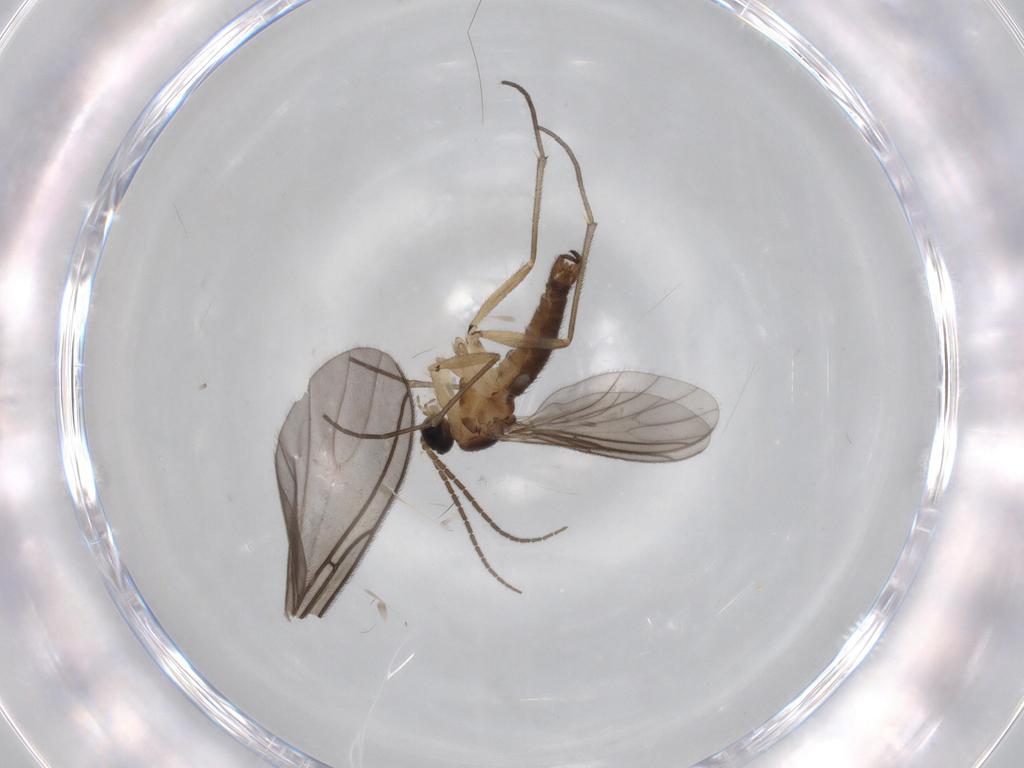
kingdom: Animalia
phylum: Arthropoda
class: Insecta
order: Diptera
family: Sciaridae
